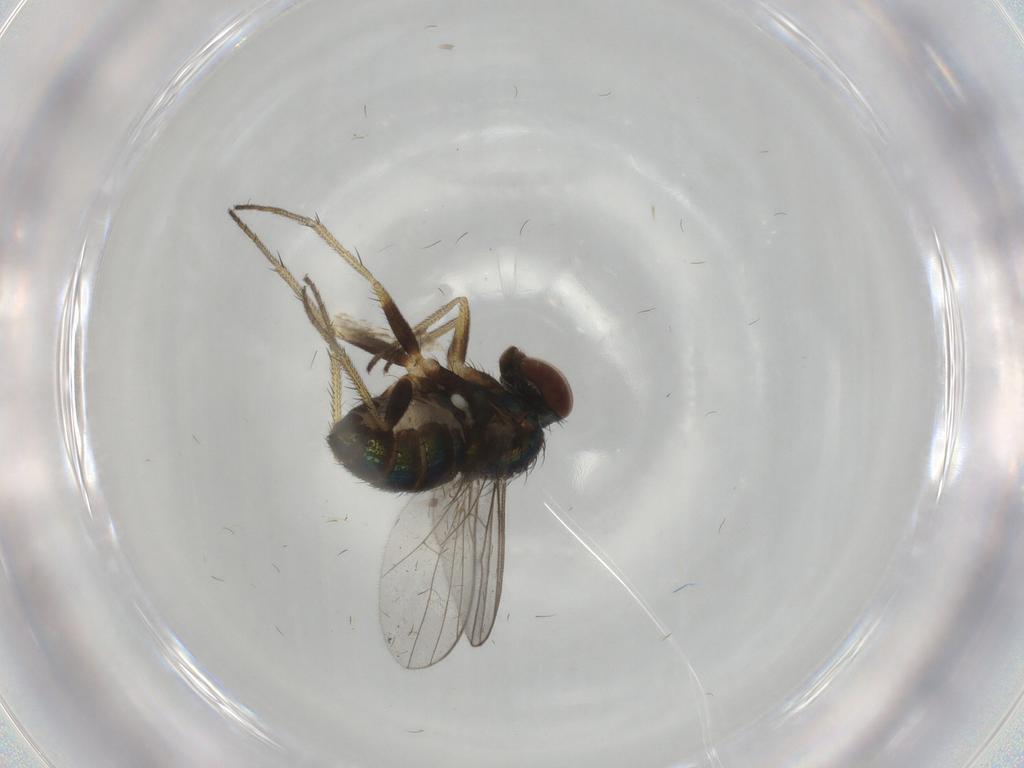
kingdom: Animalia
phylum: Arthropoda
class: Insecta
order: Diptera
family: Dolichopodidae
